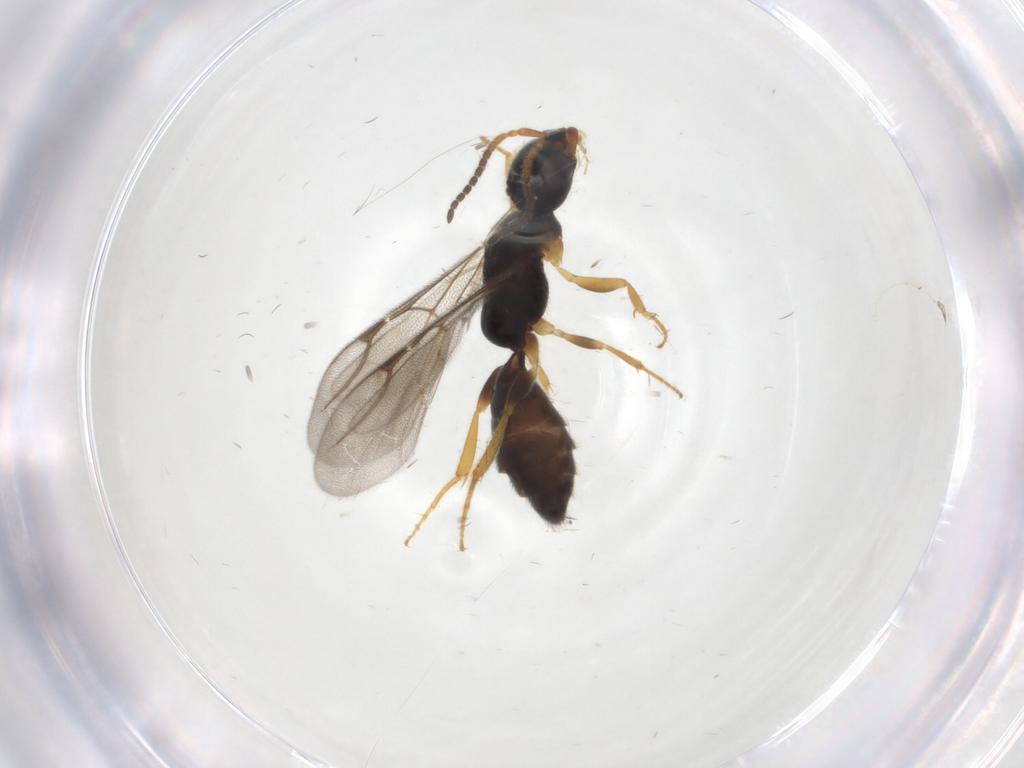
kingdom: Animalia
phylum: Arthropoda
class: Insecta
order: Hymenoptera
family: Bethylidae
